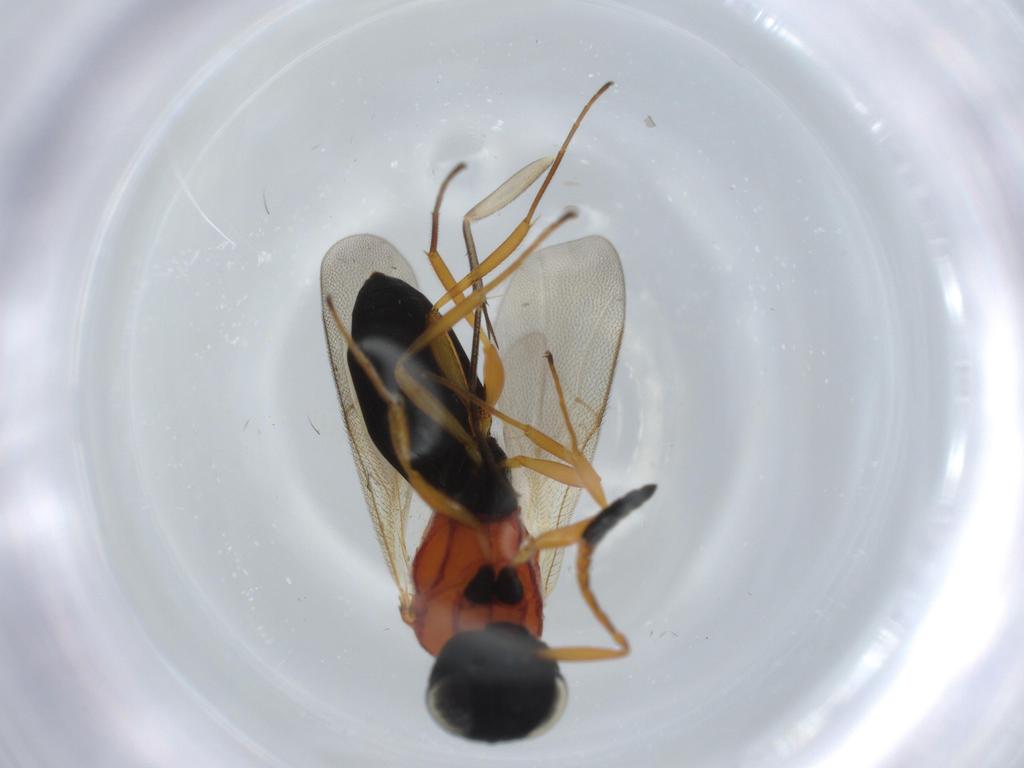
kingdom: Animalia
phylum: Arthropoda
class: Insecta
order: Hymenoptera
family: Scelionidae
